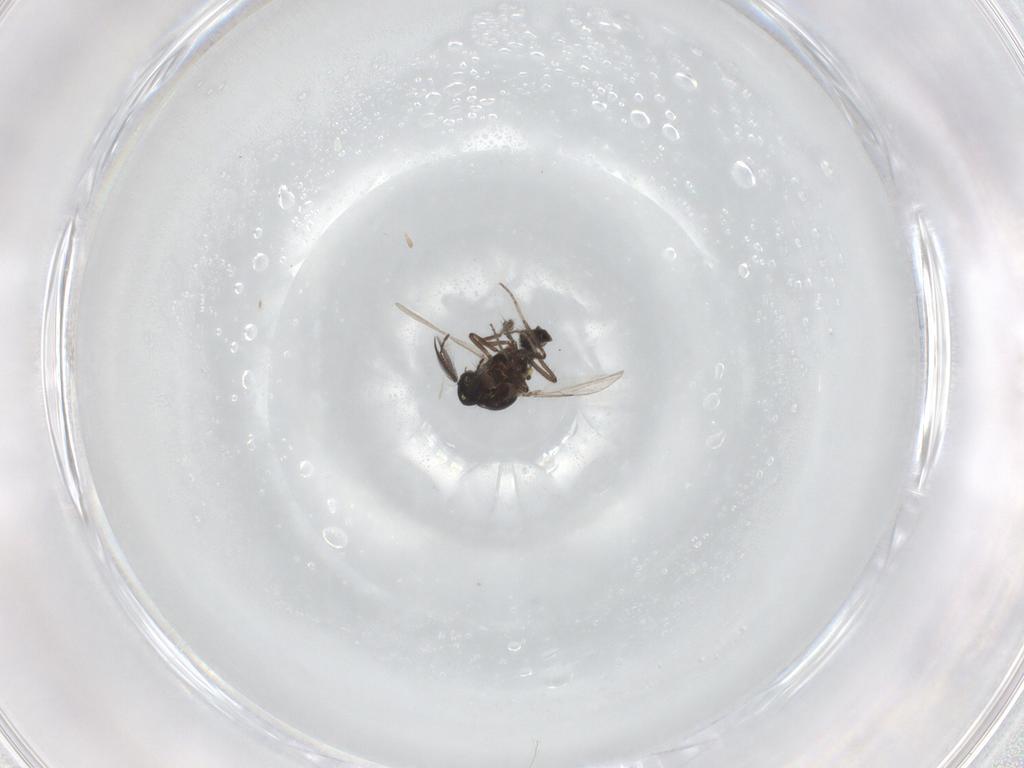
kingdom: Animalia
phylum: Arthropoda
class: Insecta
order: Diptera
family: Ceratopogonidae
